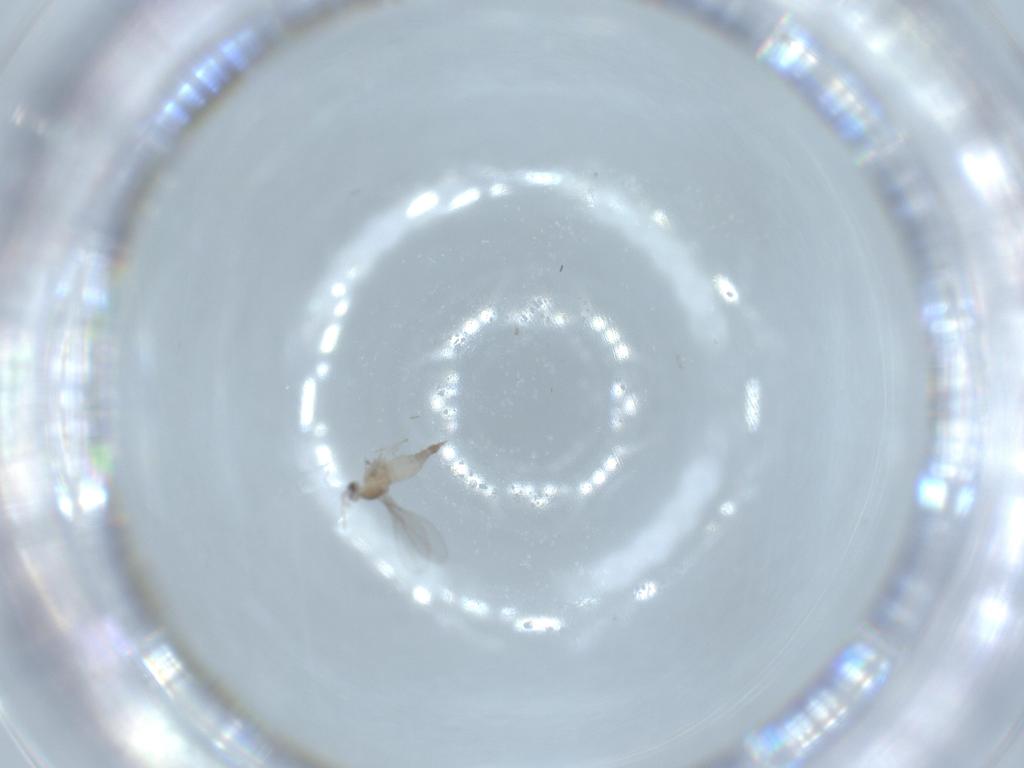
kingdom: Animalia
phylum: Arthropoda
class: Insecta
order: Diptera
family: Cecidomyiidae
